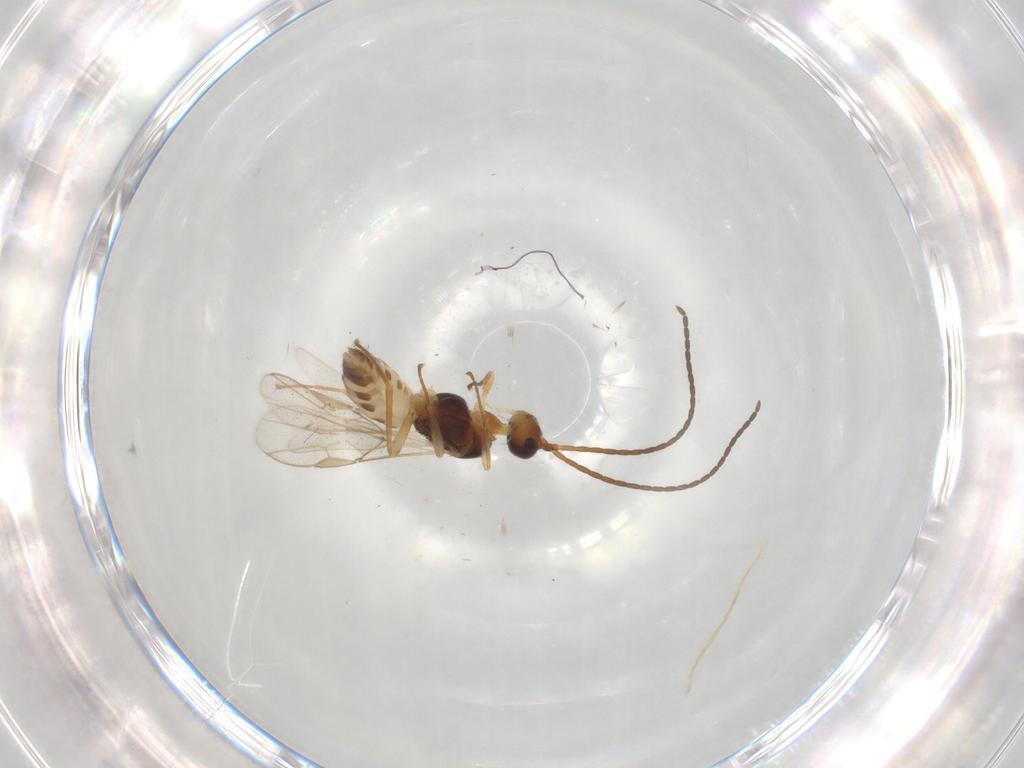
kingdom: Animalia
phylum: Arthropoda
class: Insecta
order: Hymenoptera
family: Braconidae
